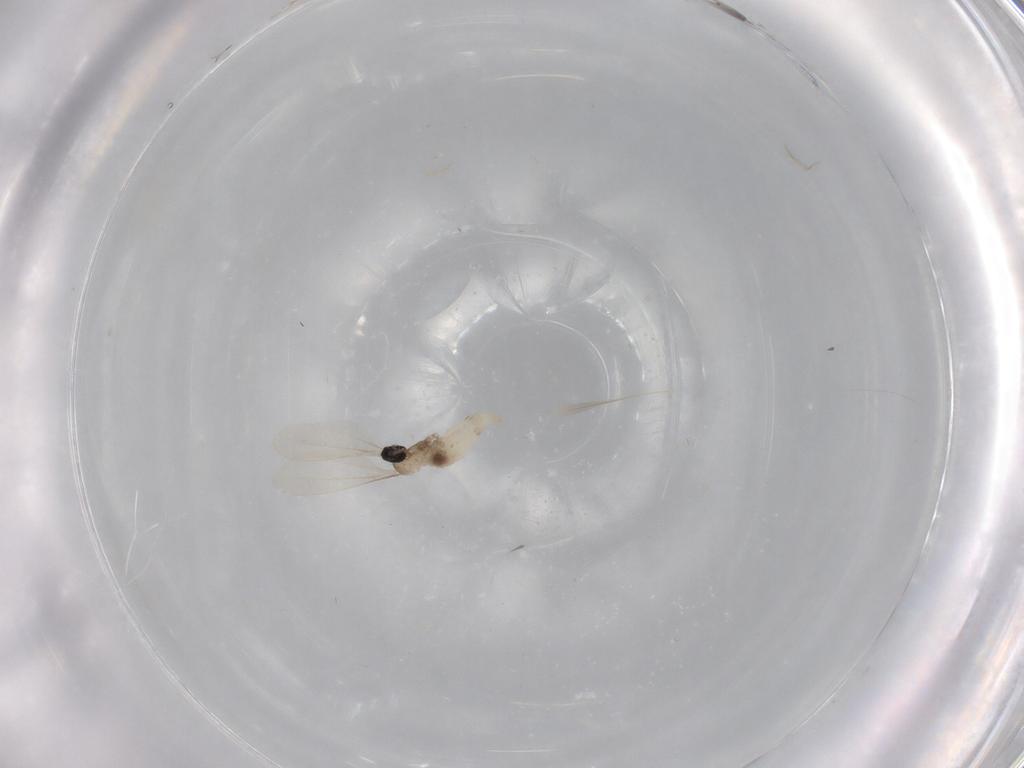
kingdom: Animalia
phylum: Arthropoda
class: Insecta
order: Diptera
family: Cecidomyiidae
